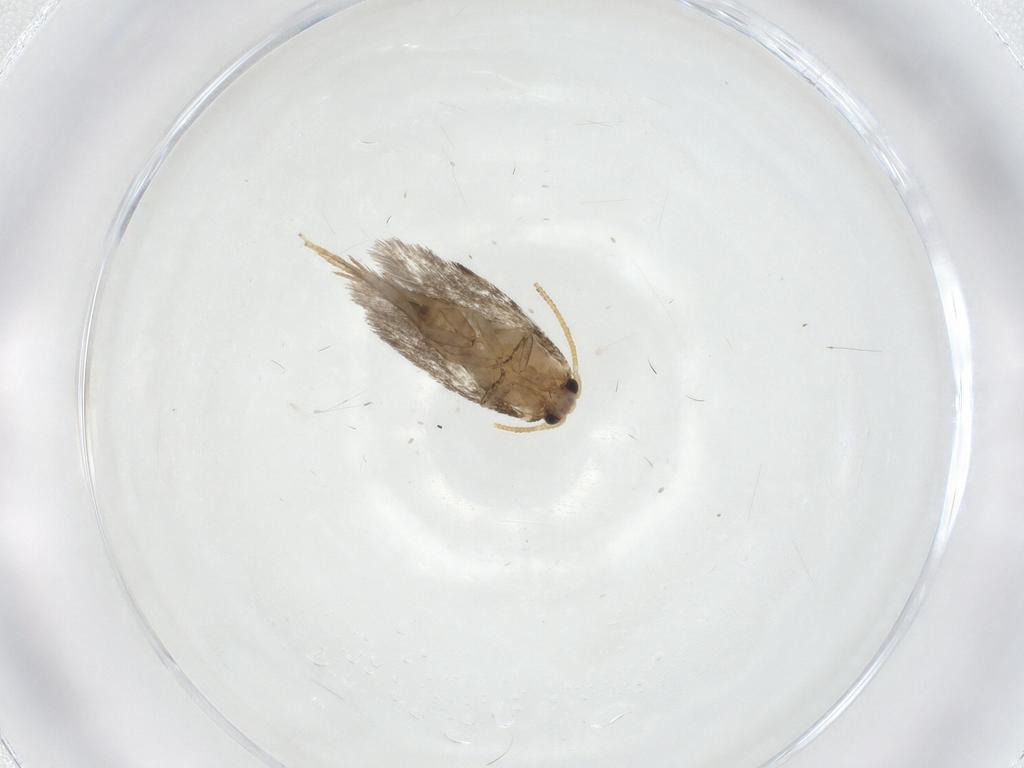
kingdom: Animalia
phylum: Arthropoda
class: Insecta
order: Lepidoptera
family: Nepticulidae
